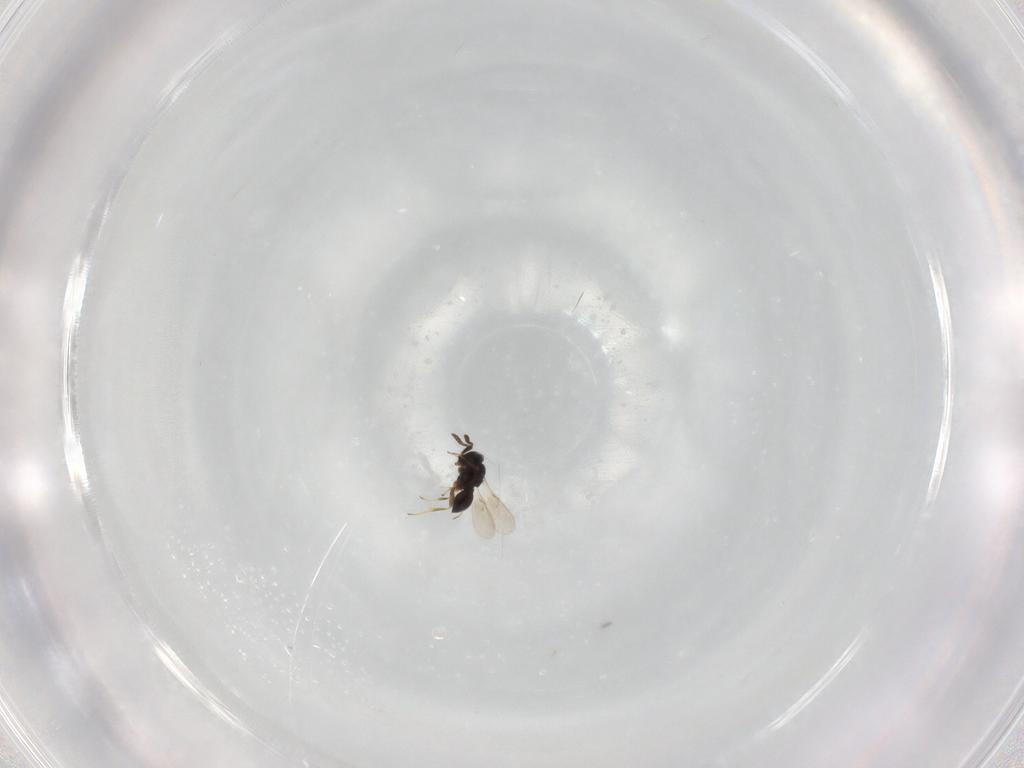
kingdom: Animalia
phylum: Arthropoda
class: Insecta
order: Hymenoptera
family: Scelionidae
